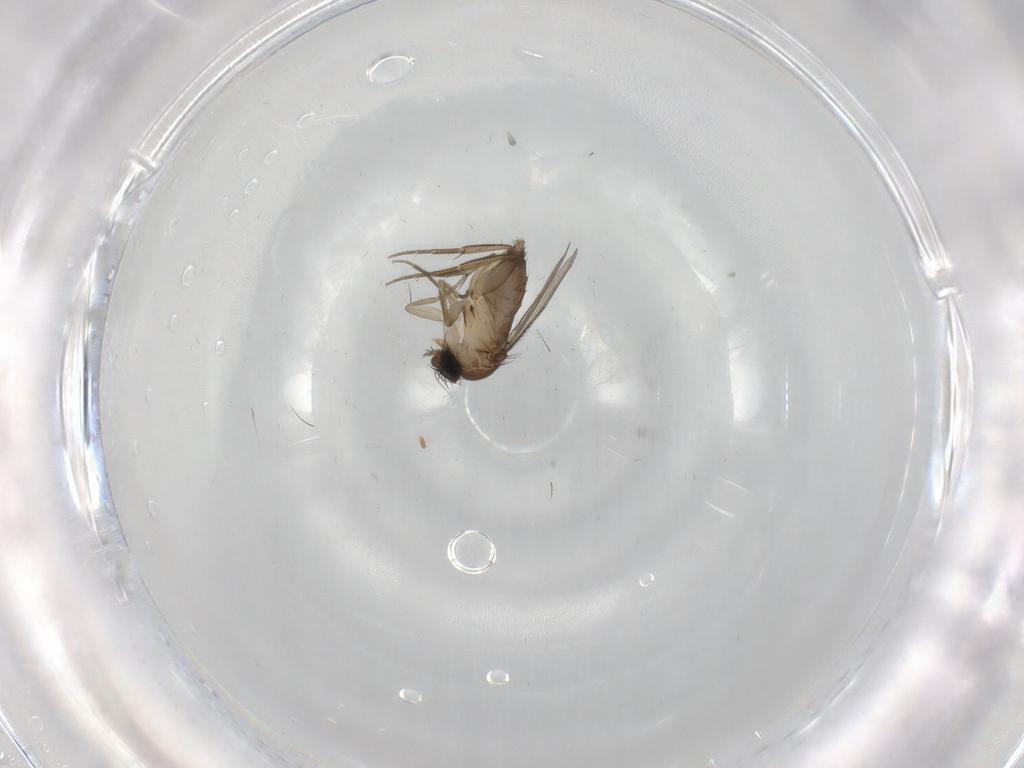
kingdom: Animalia
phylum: Arthropoda
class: Insecta
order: Diptera
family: Phoridae
